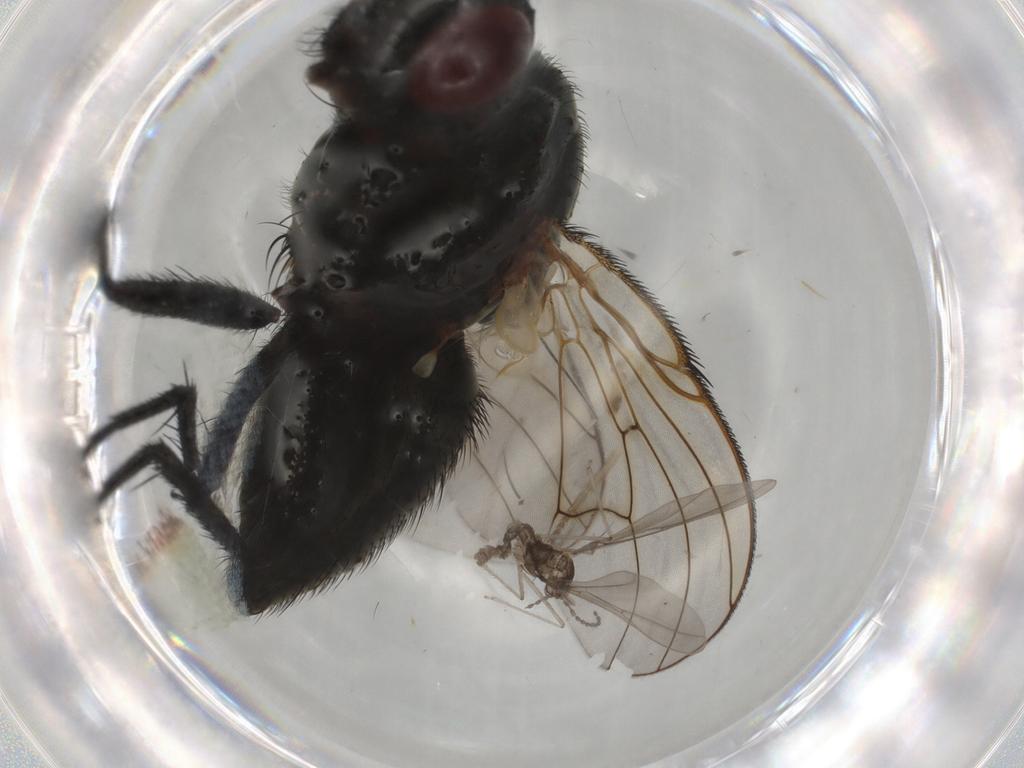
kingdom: Animalia
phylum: Arthropoda
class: Insecta
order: Diptera
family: Muscidae
